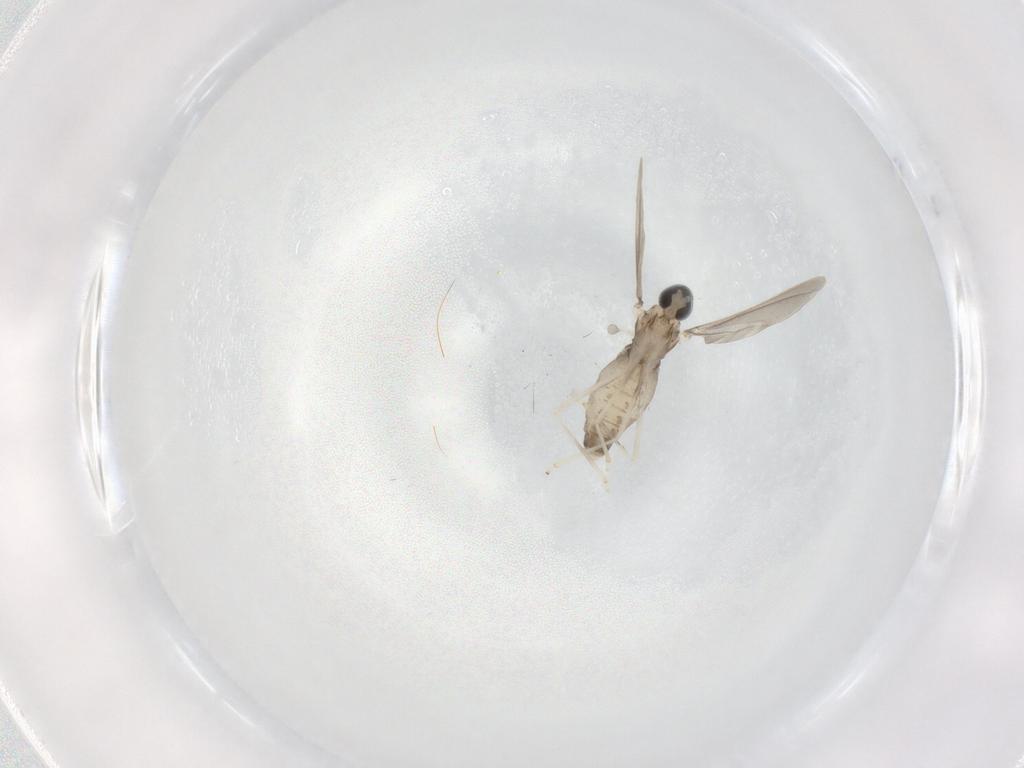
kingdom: Animalia
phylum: Arthropoda
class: Insecta
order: Diptera
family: Cecidomyiidae
